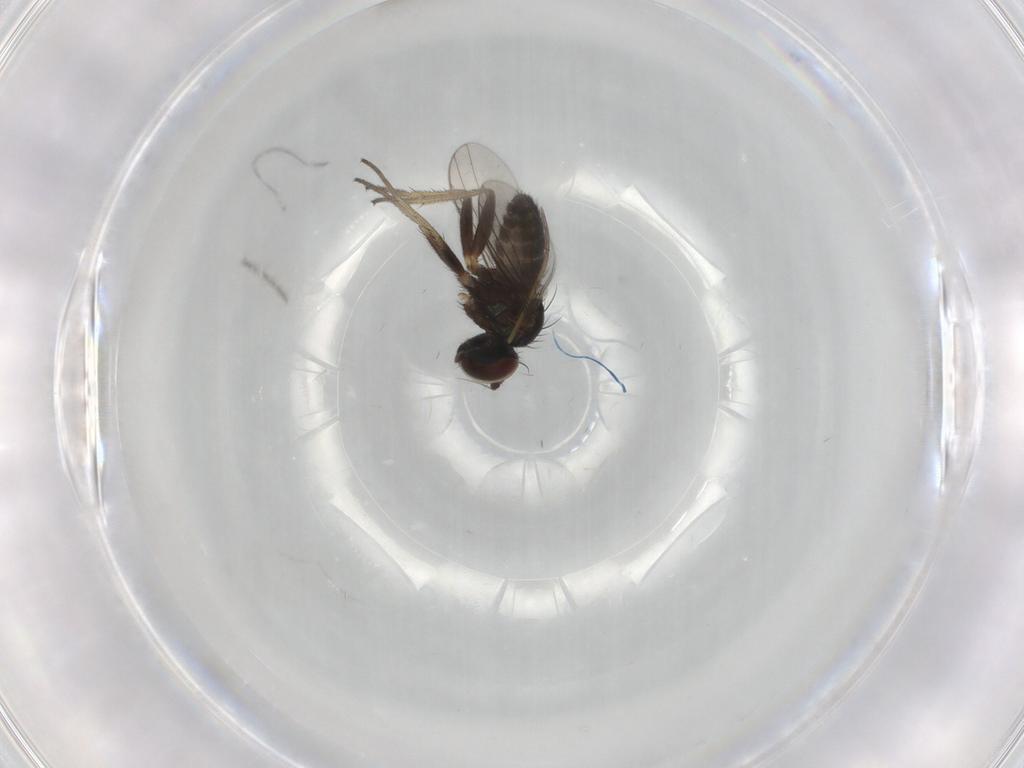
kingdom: Animalia
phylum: Arthropoda
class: Insecta
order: Diptera
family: Dolichopodidae
